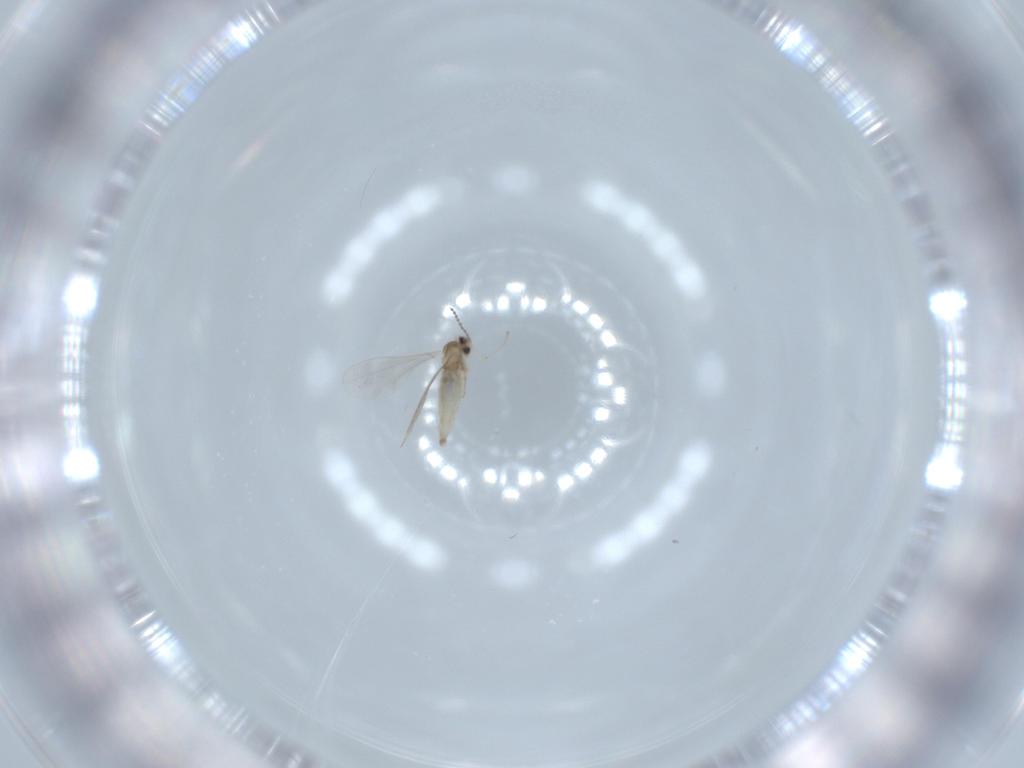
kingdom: Animalia
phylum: Arthropoda
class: Insecta
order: Diptera
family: Cecidomyiidae
